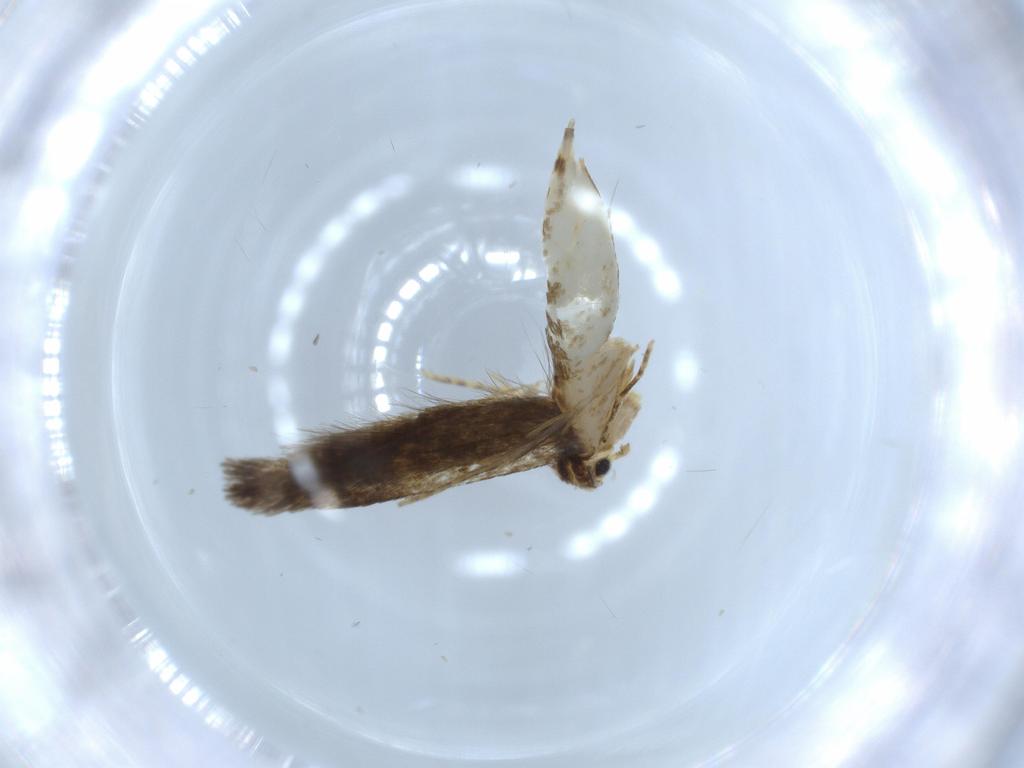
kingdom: Animalia
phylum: Arthropoda
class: Insecta
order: Lepidoptera
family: Tineidae
